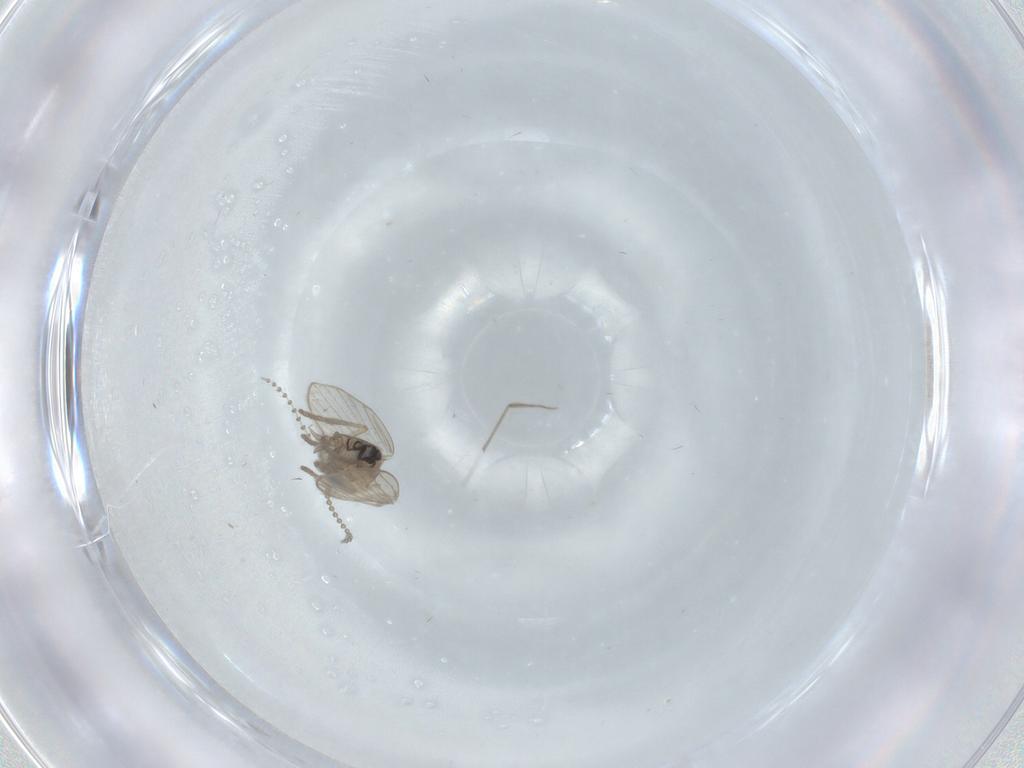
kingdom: Animalia
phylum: Arthropoda
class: Insecta
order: Diptera
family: Psychodidae
